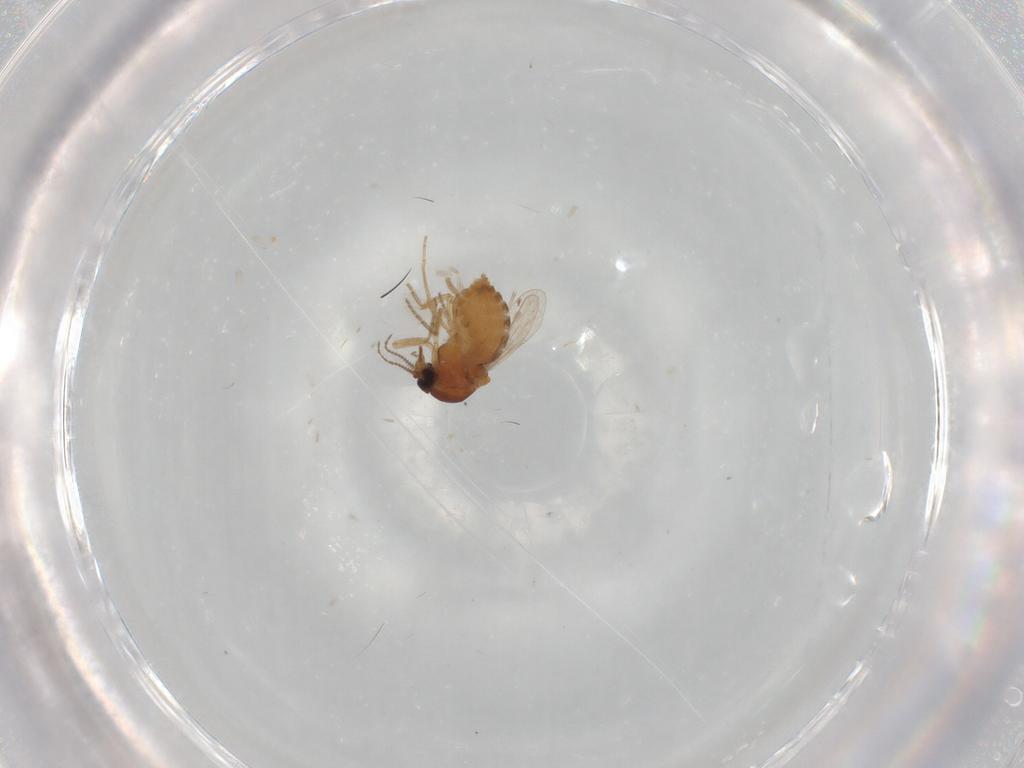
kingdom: Animalia
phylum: Arthropoda
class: Insecta
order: Diptera
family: Ceratopogonidae
